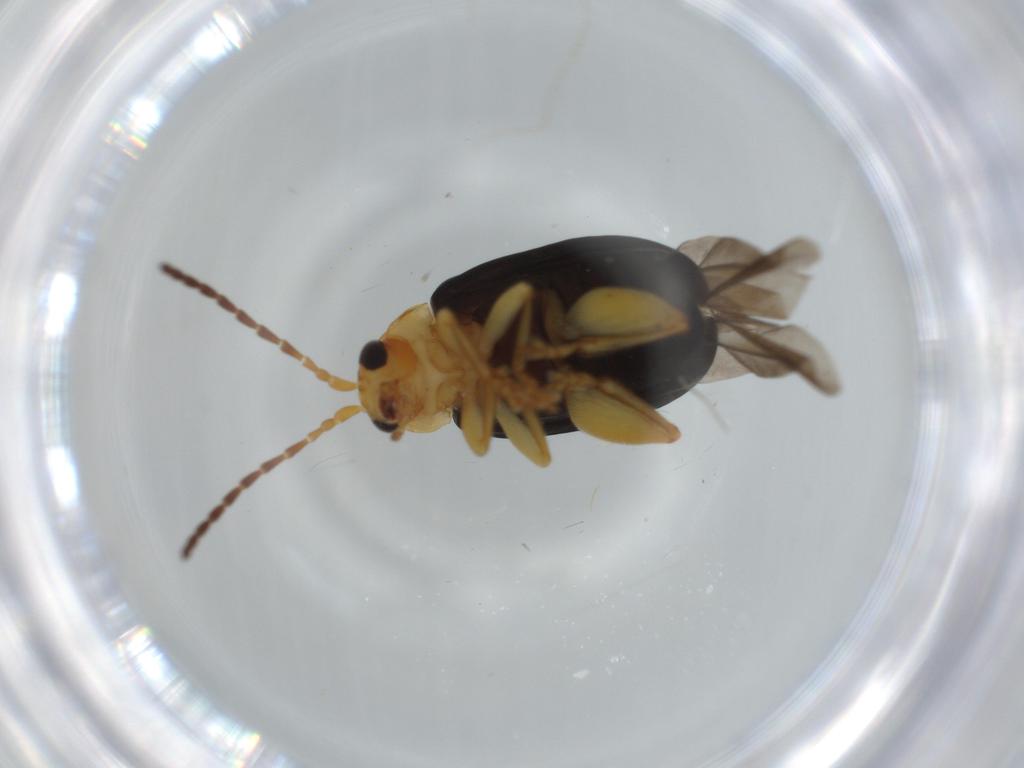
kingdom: Animalia
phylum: Arthropoda
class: Insecta
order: Coleoptera
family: Chrysomelidae
